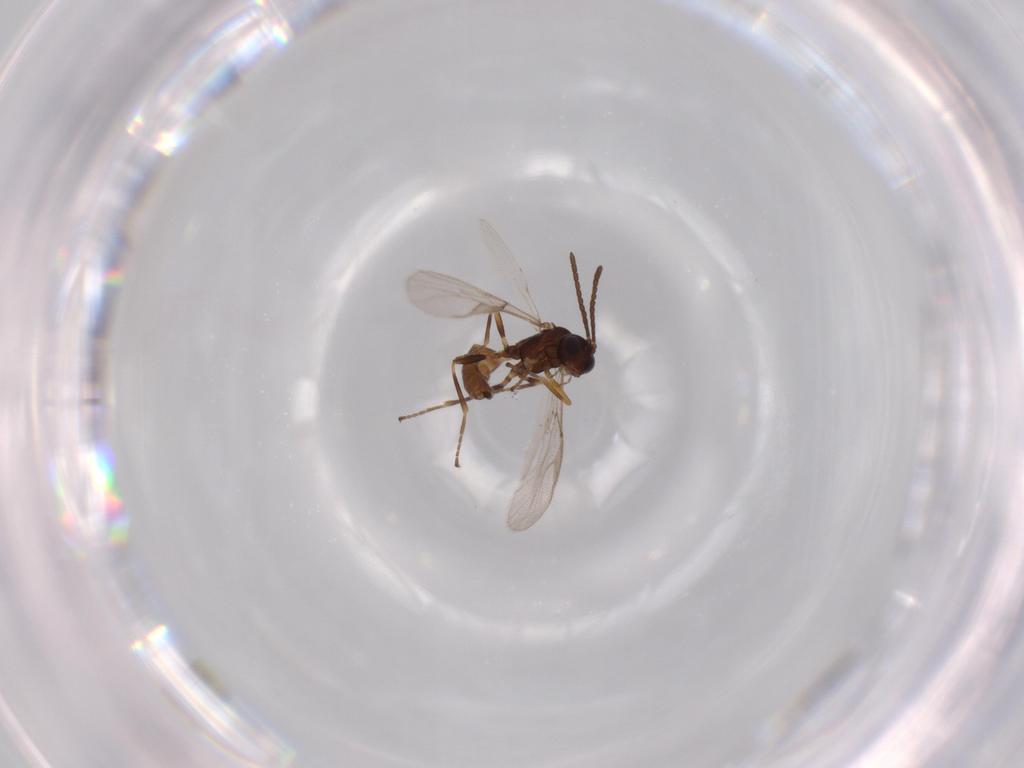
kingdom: Animalia
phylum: Arthropoda
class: Insecta
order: Hymenoptera
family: Braconidae
